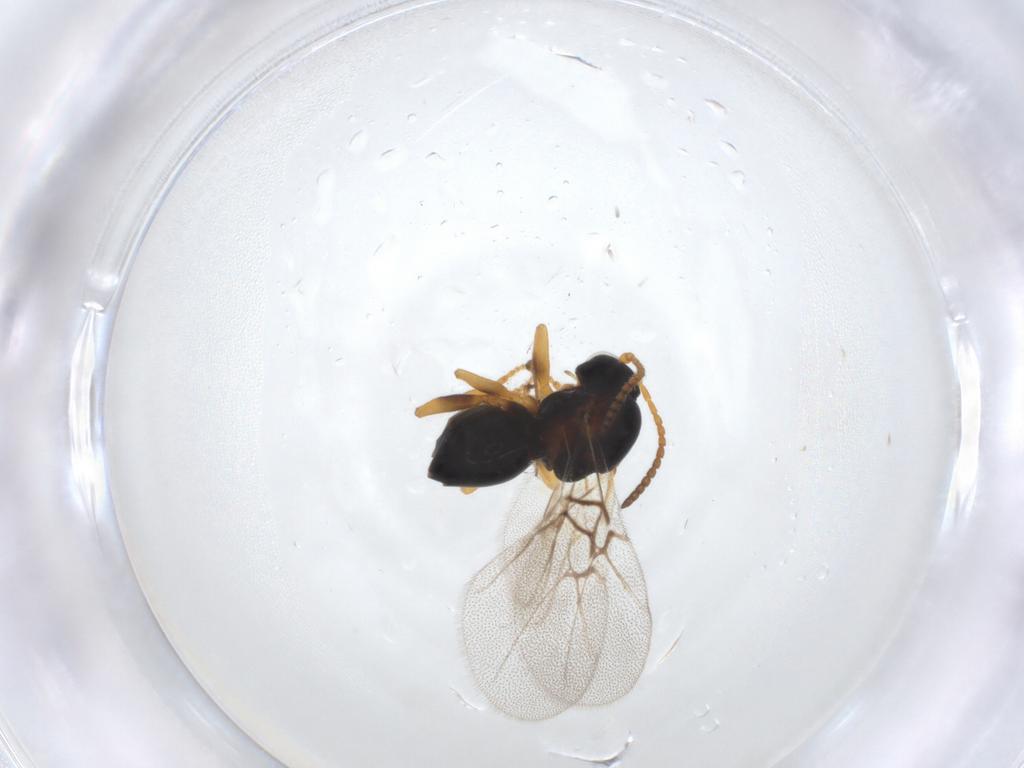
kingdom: Animalia
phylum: Arthropoda
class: Insecta
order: Hymenoptera
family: Cynipidae
